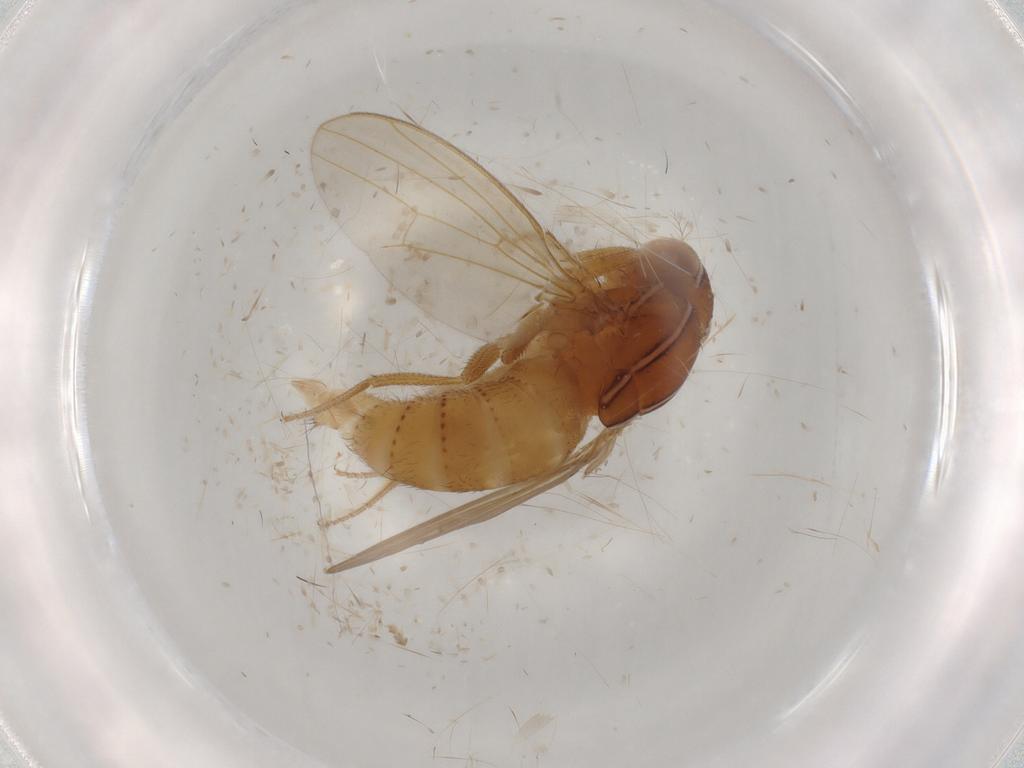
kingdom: Animalia
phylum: Arthropoda
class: Insecta
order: Diptera
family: Drosophilidae
